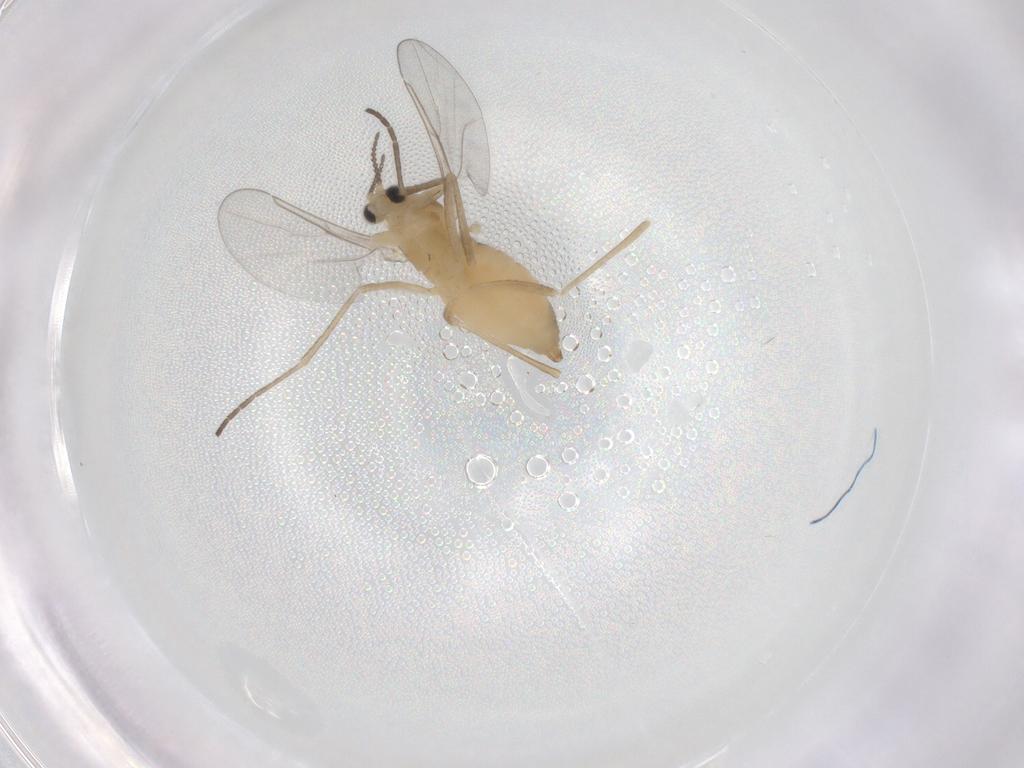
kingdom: Animalia
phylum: Arthropoda
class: Insecta
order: Diptera
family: Cecidomyiidae
